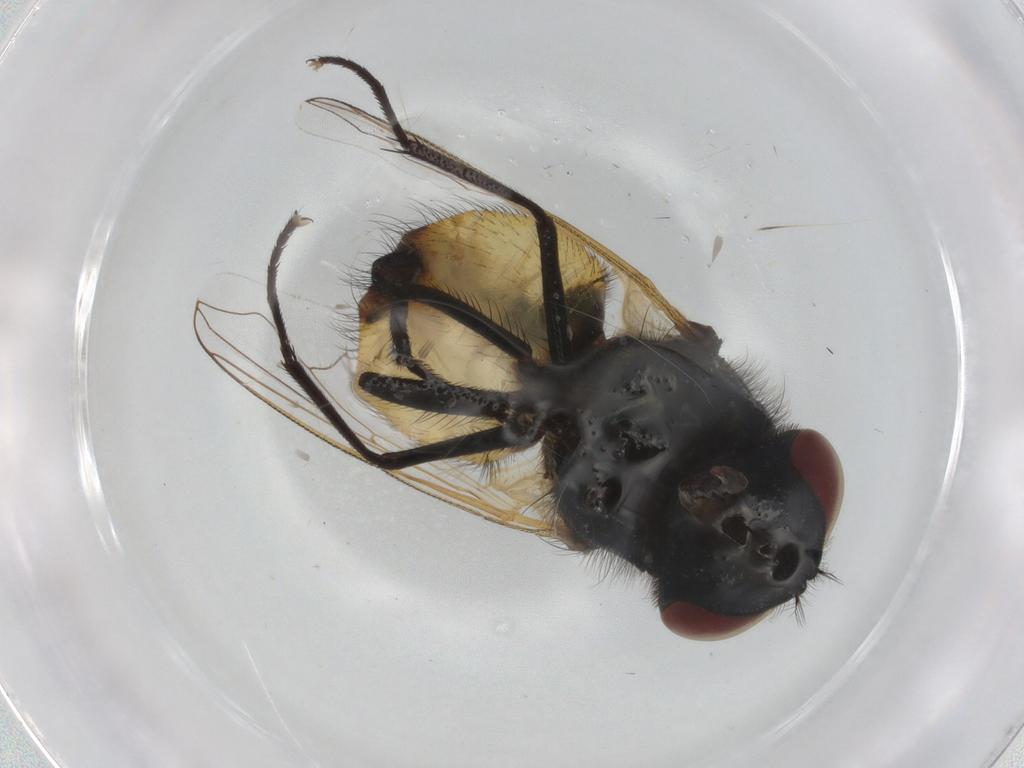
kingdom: Animalia
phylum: Arthropoda
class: Insecta
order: Diptera
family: Muscidae
